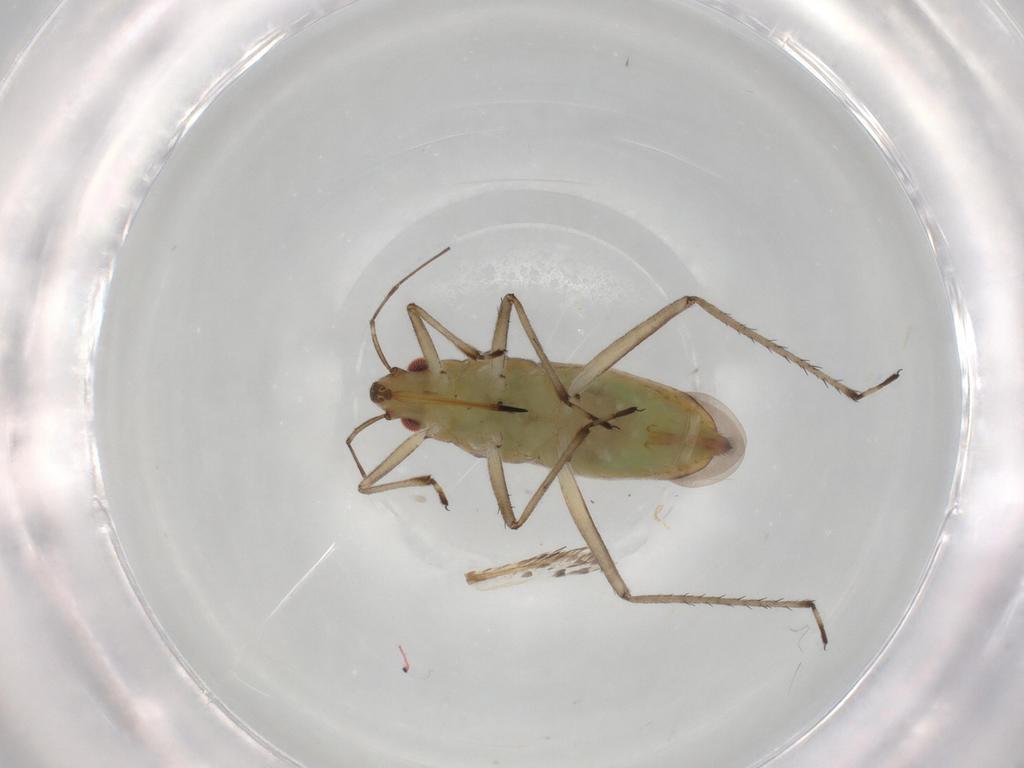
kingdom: Animalia
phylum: Arthropoda
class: Insecta
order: Hemiptera
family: Mesoveliidae
